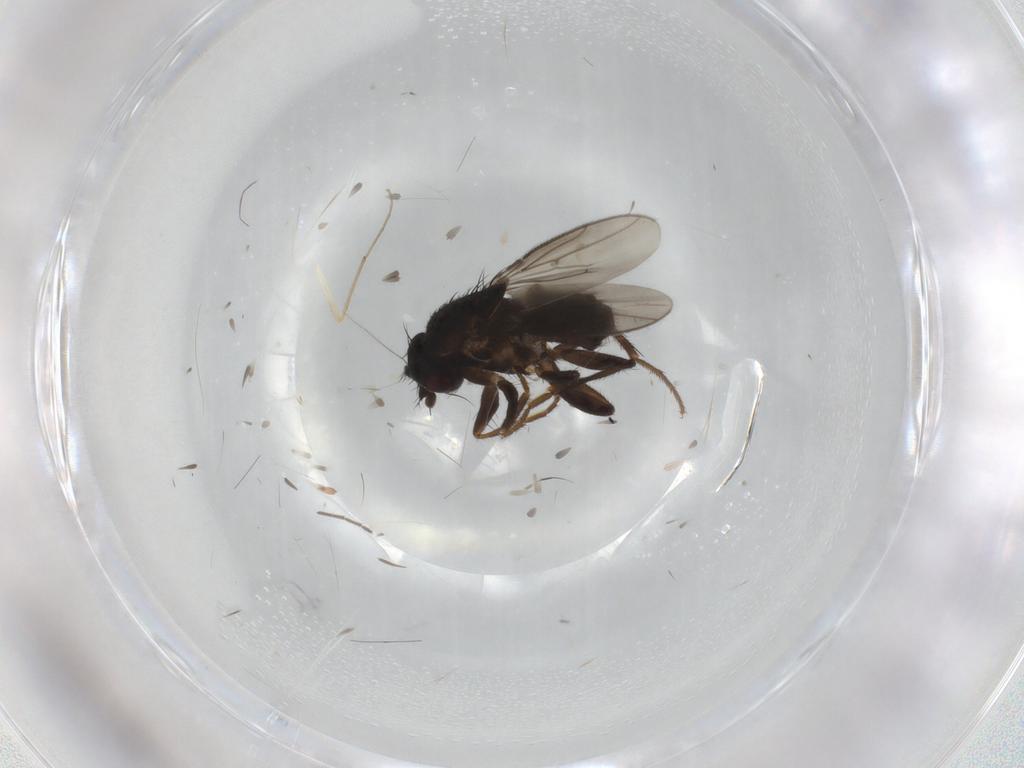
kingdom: Animalia
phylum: Arthropoda
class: Insecta
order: Diptera
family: Sphaeroceridae
